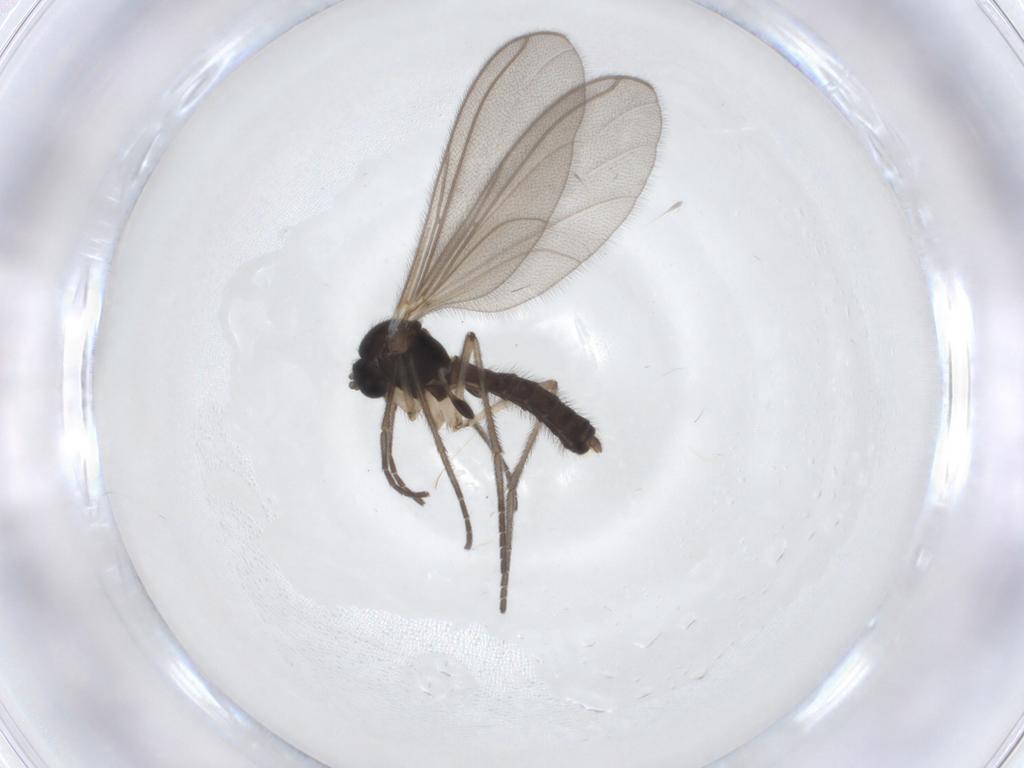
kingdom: Animalia
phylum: Arthropoda
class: Insecta
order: Diptera
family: Mycetophilidae
